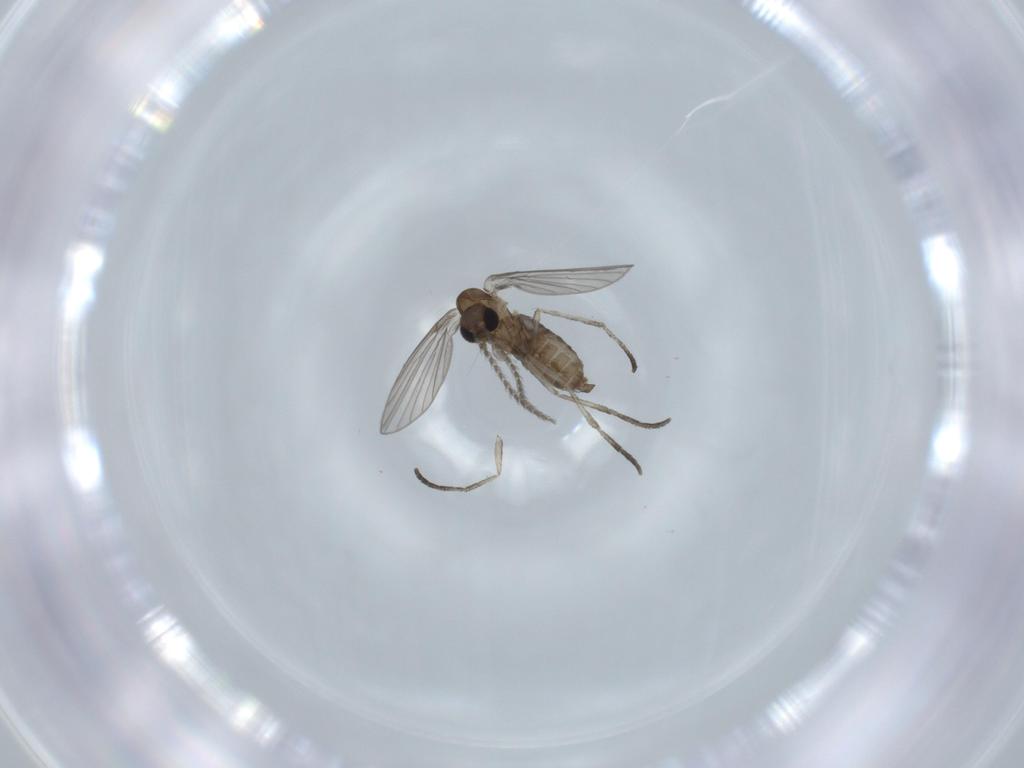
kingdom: Animalia
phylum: Arthropoda
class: Insecta
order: Diptera
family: Psychodidae
